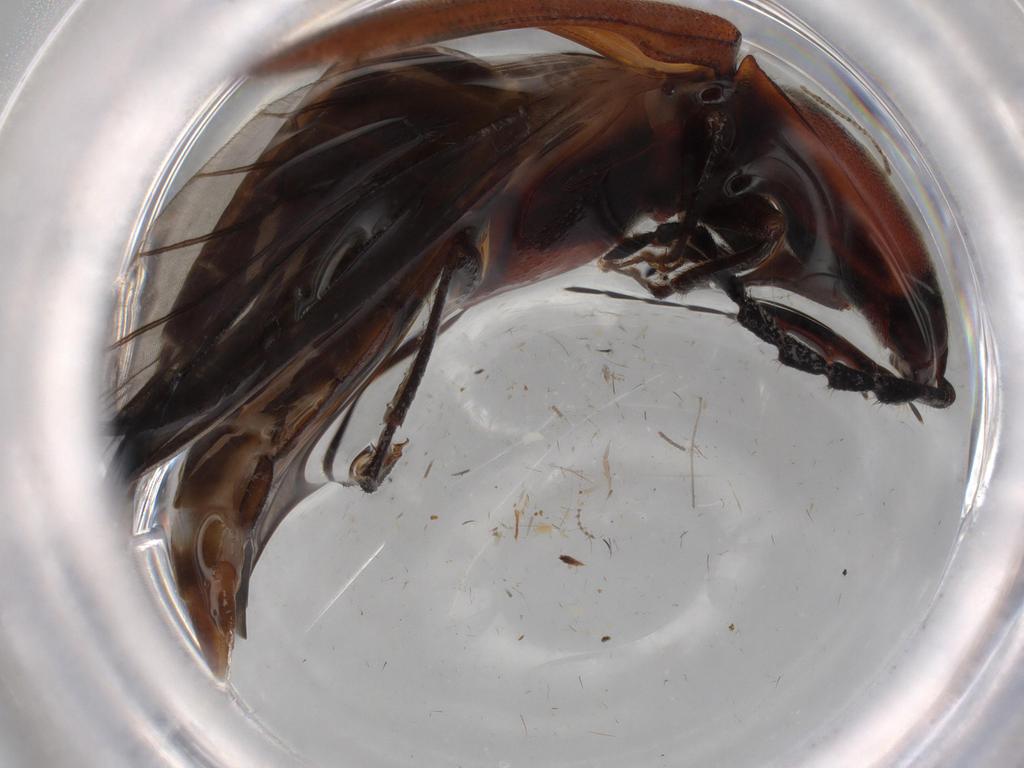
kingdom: Animalia
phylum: Arthropoda
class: Insecta
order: Coleoptera
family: Elateridae
